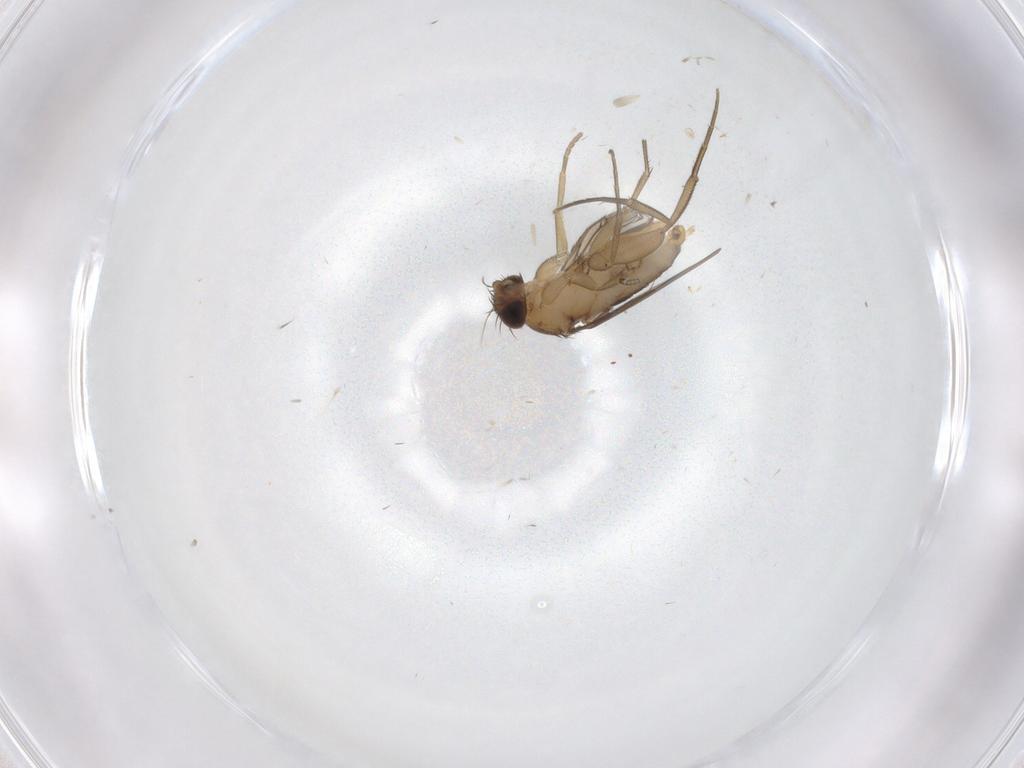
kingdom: Animalia
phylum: Arthropoda
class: Insecta
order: Diptera
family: Phoridae
